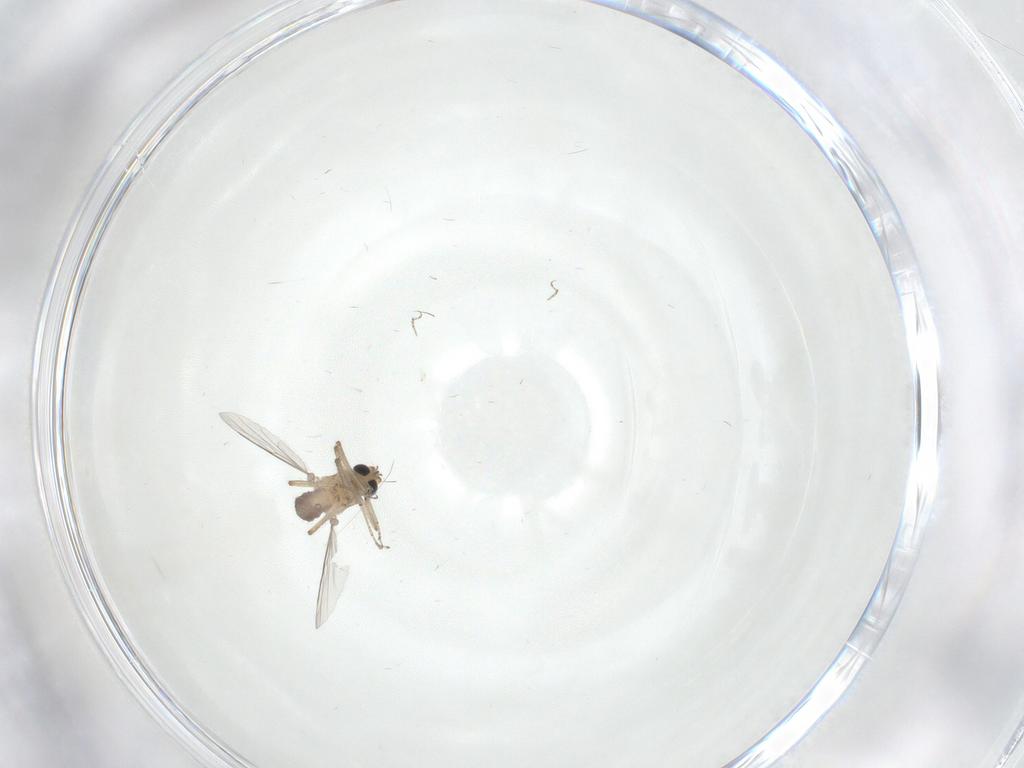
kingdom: Animalia
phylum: Arthropoda
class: Insecta
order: Diptera
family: Ceratopogonidae
